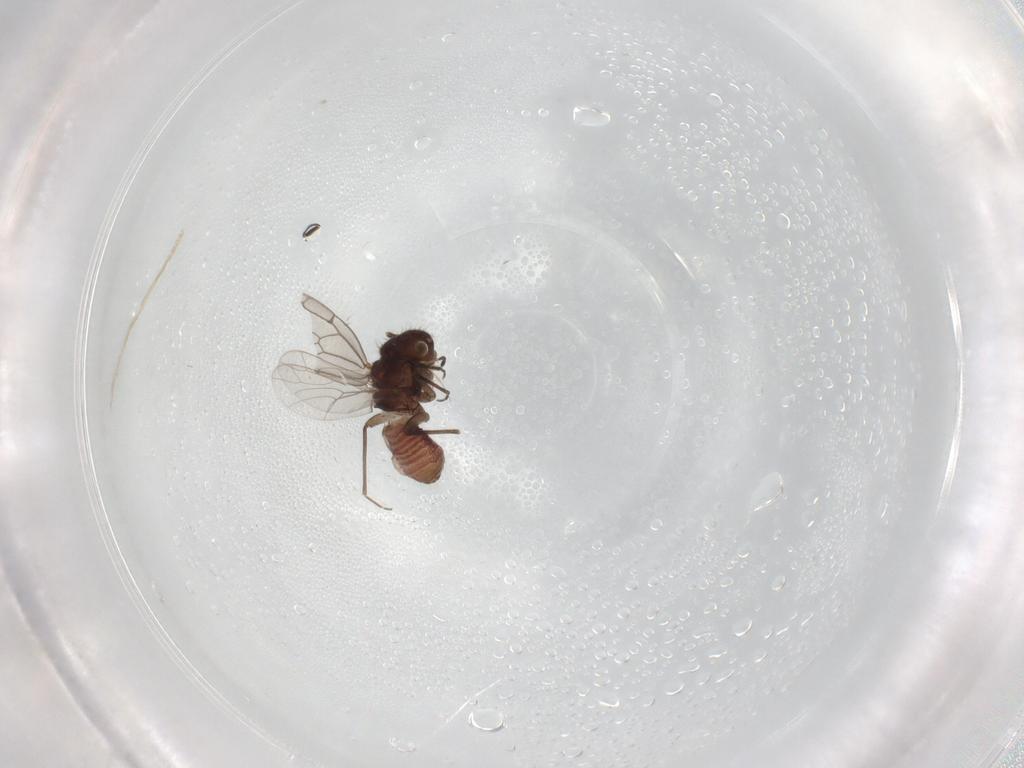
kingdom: Animalia
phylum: Arthropoda
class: Insecta
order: Psocodea
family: Ectopsocidae
